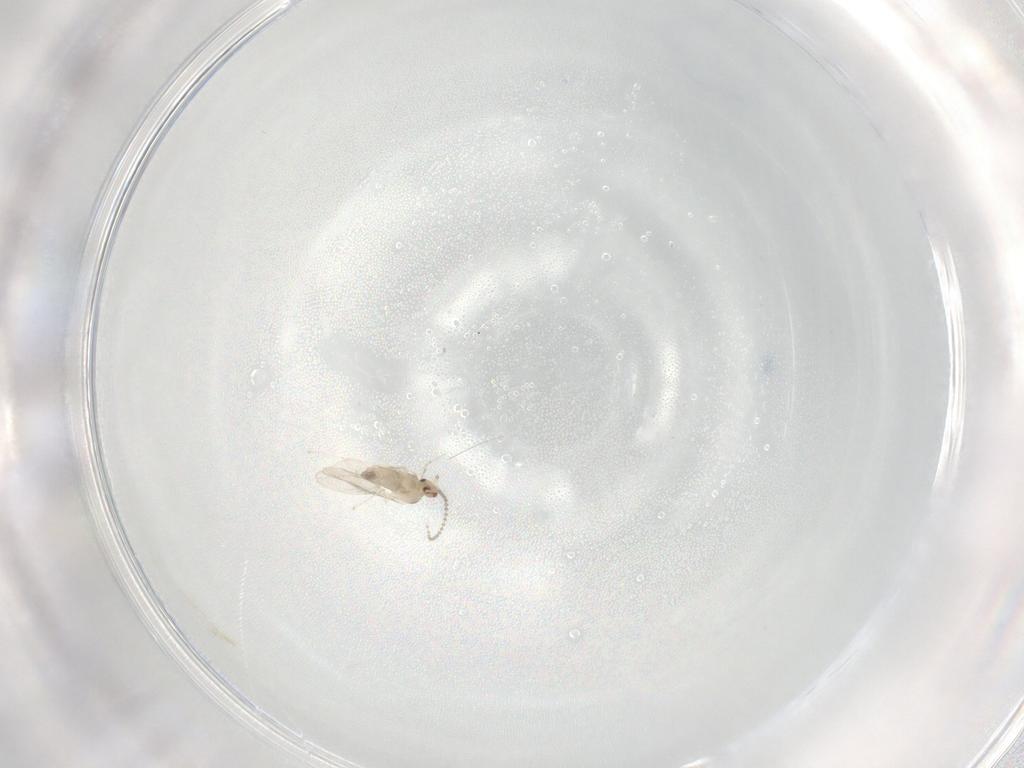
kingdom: Animalia
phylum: Arthropoda
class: Insecta
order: Diptera
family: Cecidomyiidae
